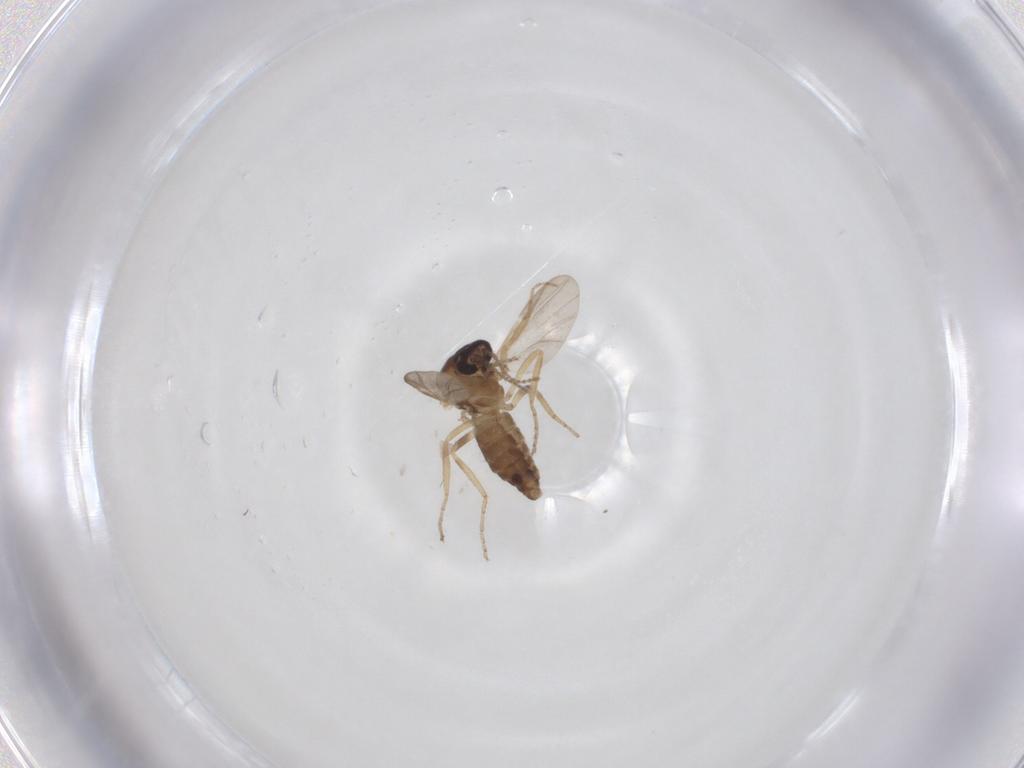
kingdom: Animalia
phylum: Arthropoda
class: Insecta
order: Diptera
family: Ceratopogonidae
